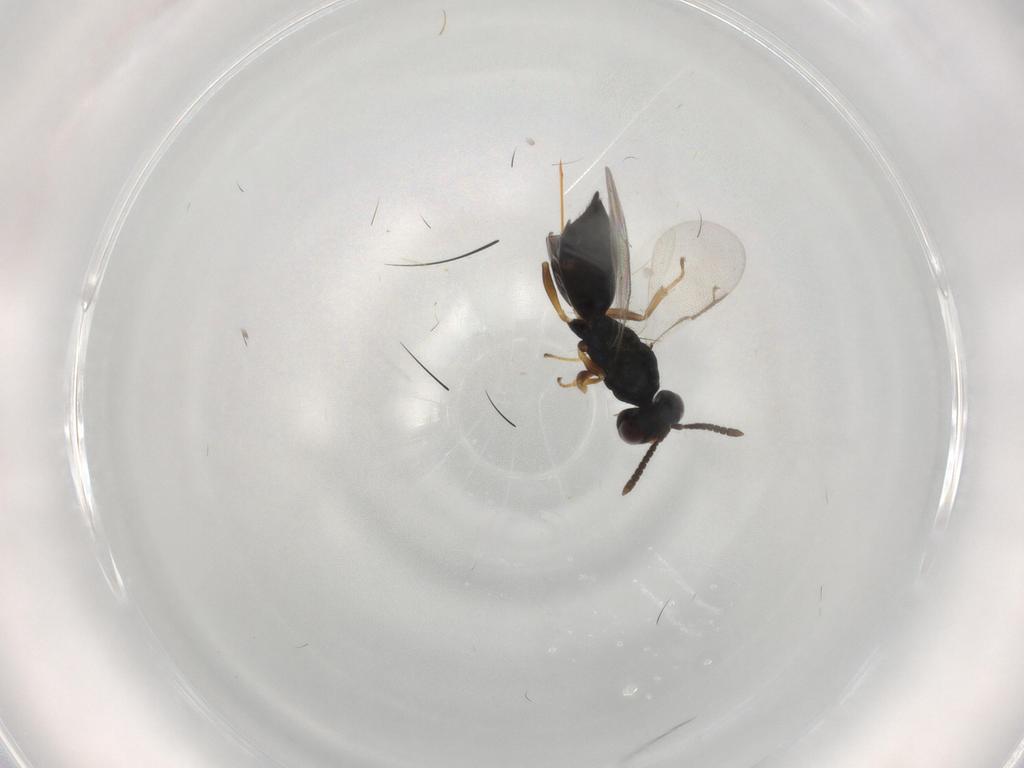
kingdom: Animalia
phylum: Arthropoda
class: Insecta
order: Hymenoptera
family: Pteromalidae
